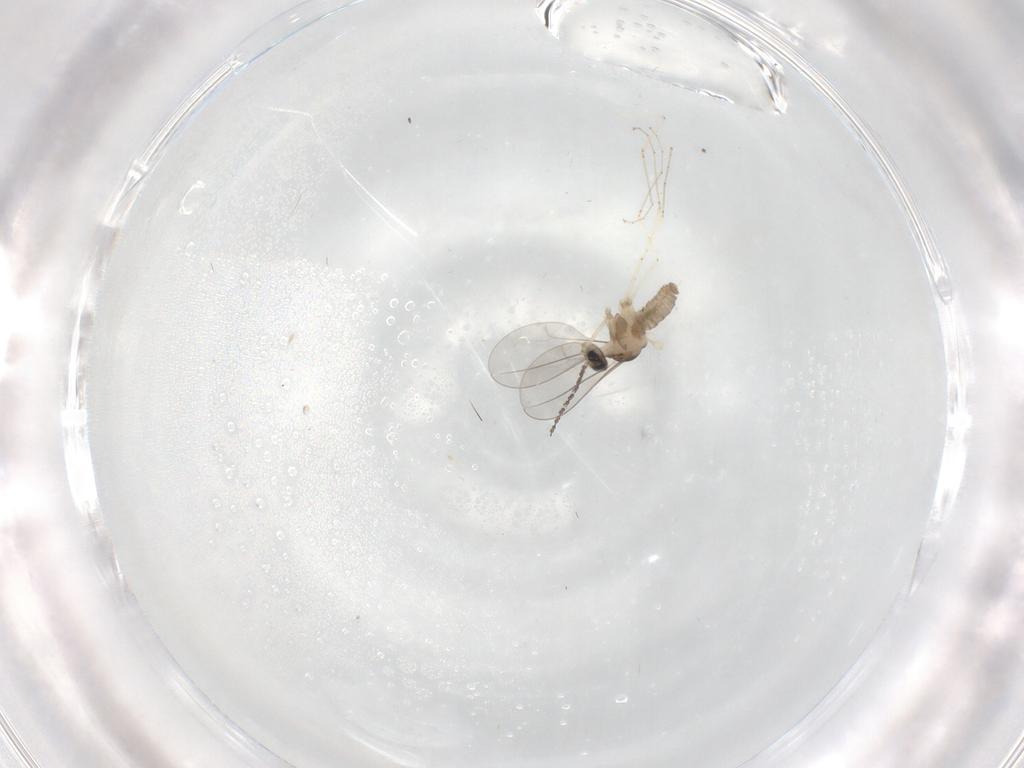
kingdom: Animalia
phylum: Arthropoda
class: Insecta
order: Diptera
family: Cecidomyiidae
